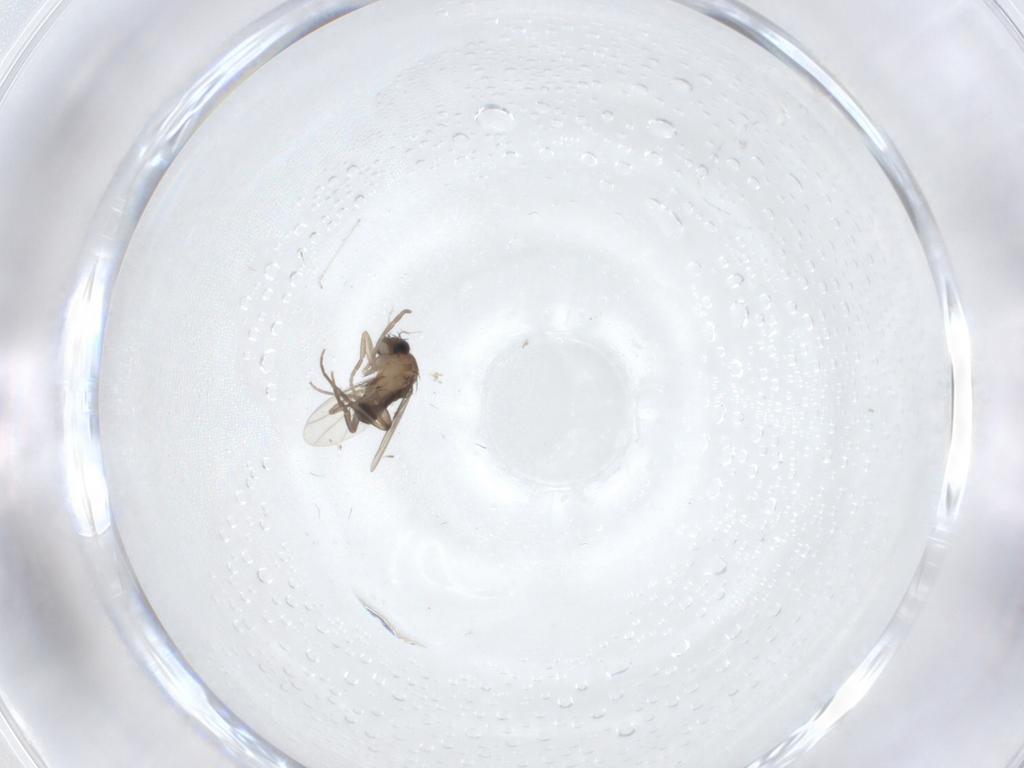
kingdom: Animalia
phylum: Arthropoda
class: Insecta
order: Diptera
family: Phoridae
